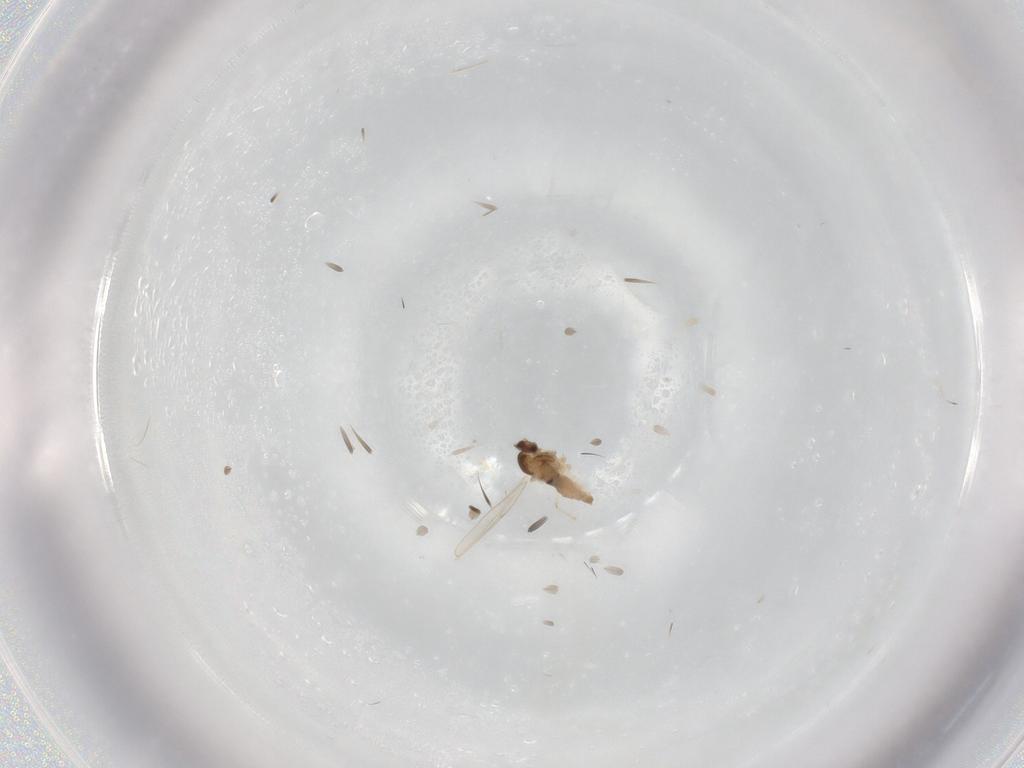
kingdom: Animalia
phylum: Arthropoda
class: Insecta
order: Diptera
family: Cecidomyiidae
